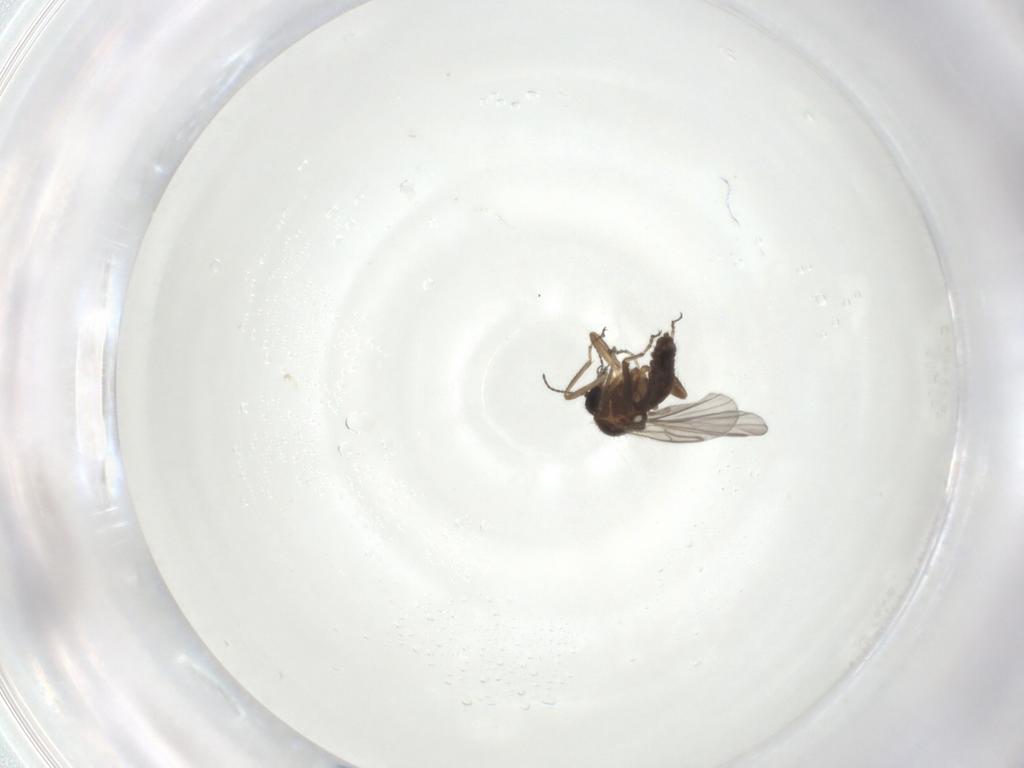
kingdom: Animalia
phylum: Arthropoda
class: Insecta
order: Diptera
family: Ceratopogonidae
